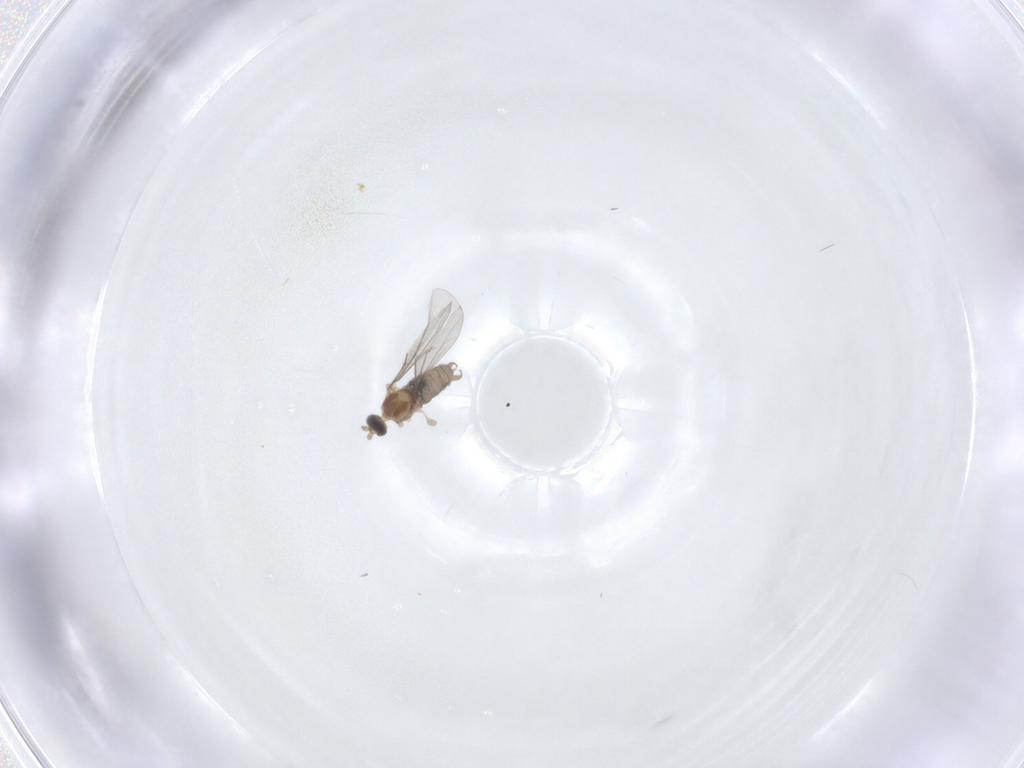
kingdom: Animalia
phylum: Arthropoda
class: Insecta
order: Diptera
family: Cecidomyiidae
